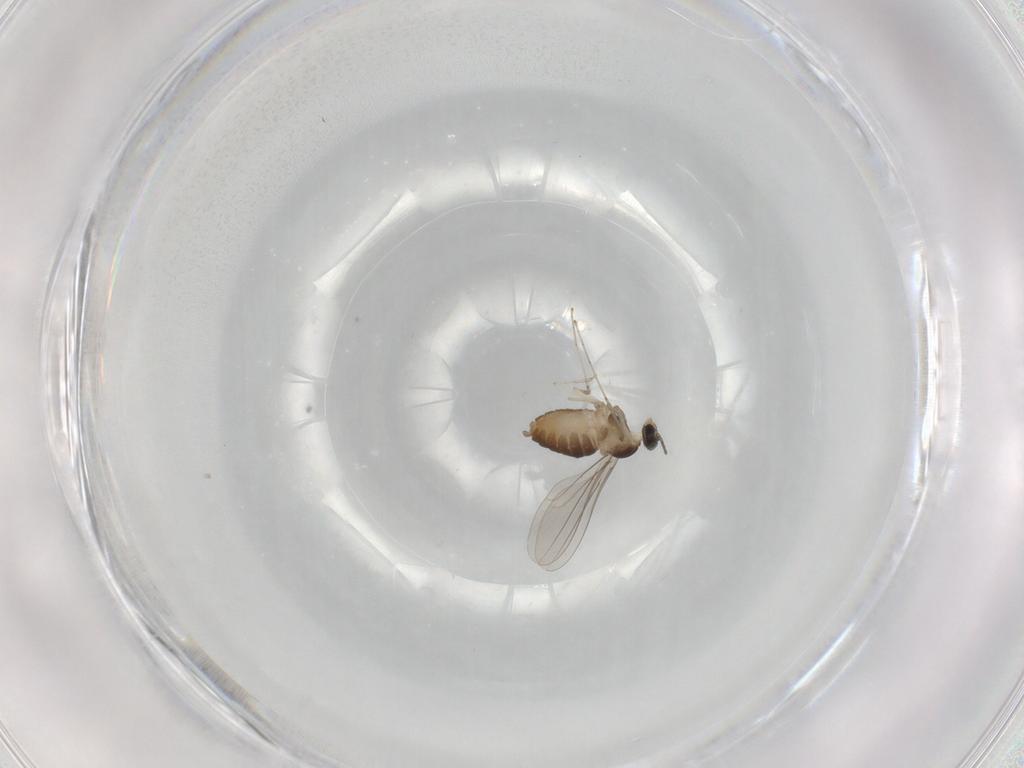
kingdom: Animalia
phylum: Arthropoda
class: Insecta
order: Diptera
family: Cecidomyiidae
